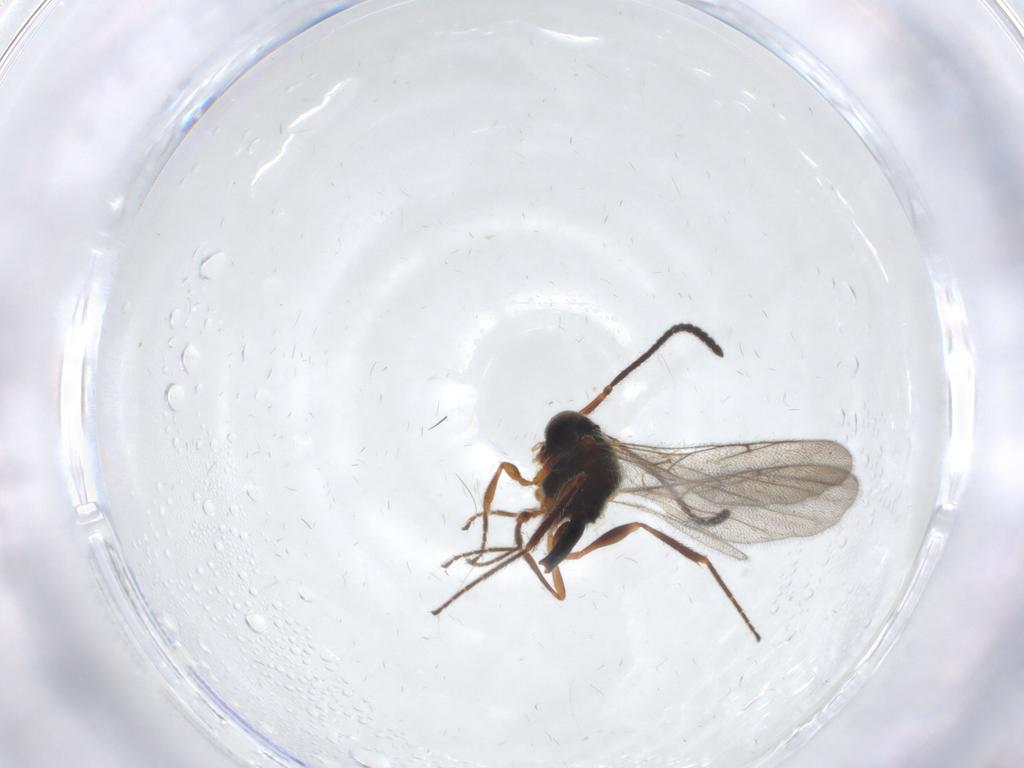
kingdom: Animalia
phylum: Arthropoda
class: Insecta
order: Hymenoptera
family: Diapriidae
